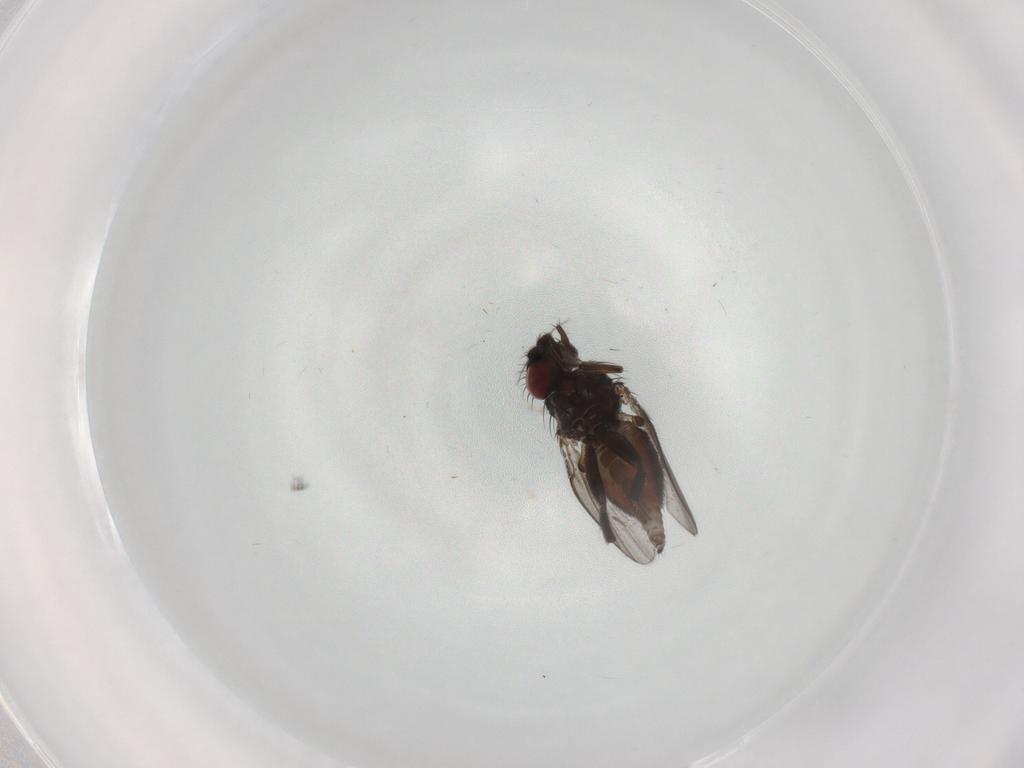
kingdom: Animalia
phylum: Arthropoda
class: Insecta
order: Diptera
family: Milichiidae
